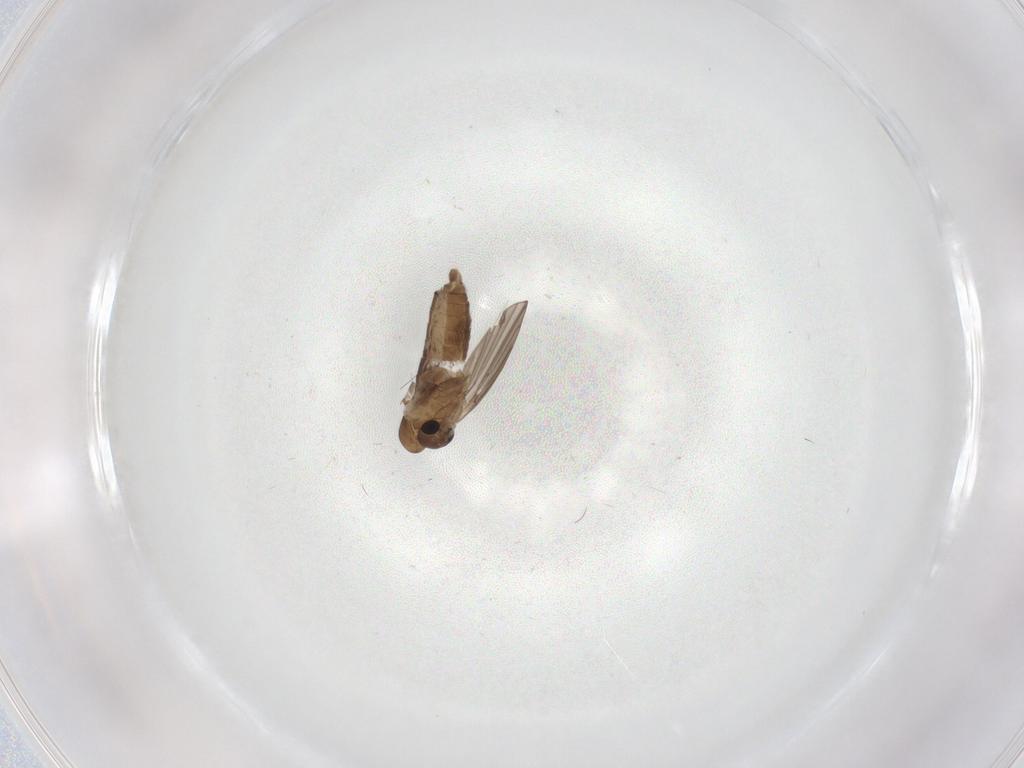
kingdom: Animalia
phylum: Arthropoda
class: Insecta
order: Diptera
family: Cecidomyiidae
